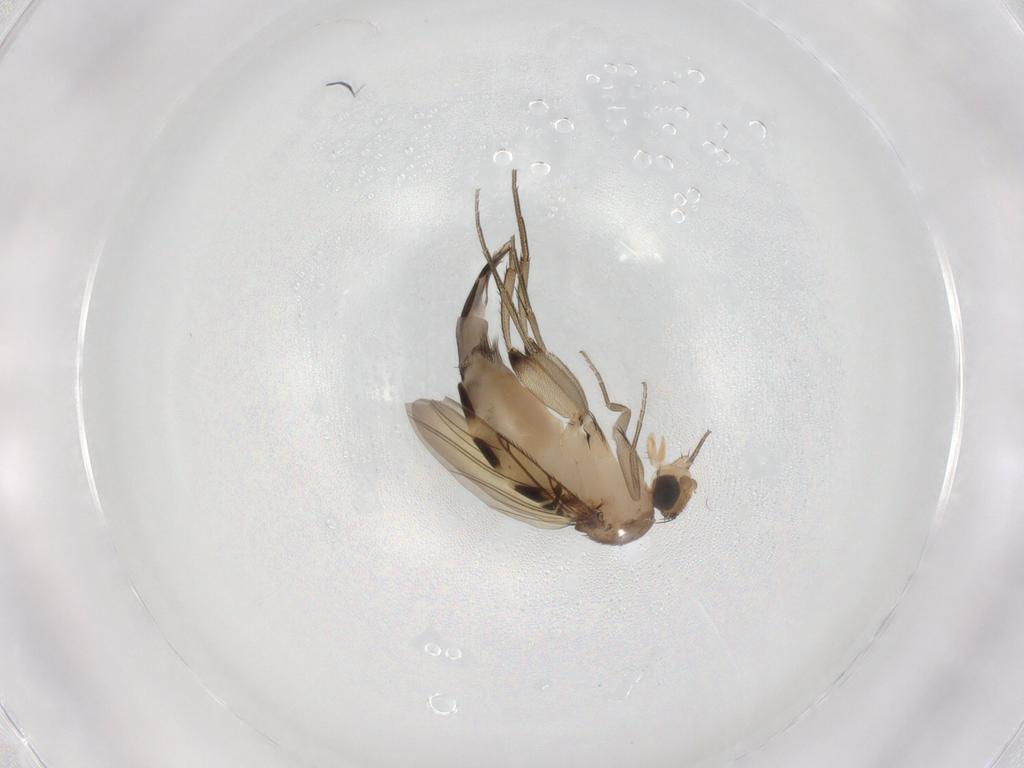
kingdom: Animalia
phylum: Arthropoda
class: Insecta
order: Diptera
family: Phoridae
